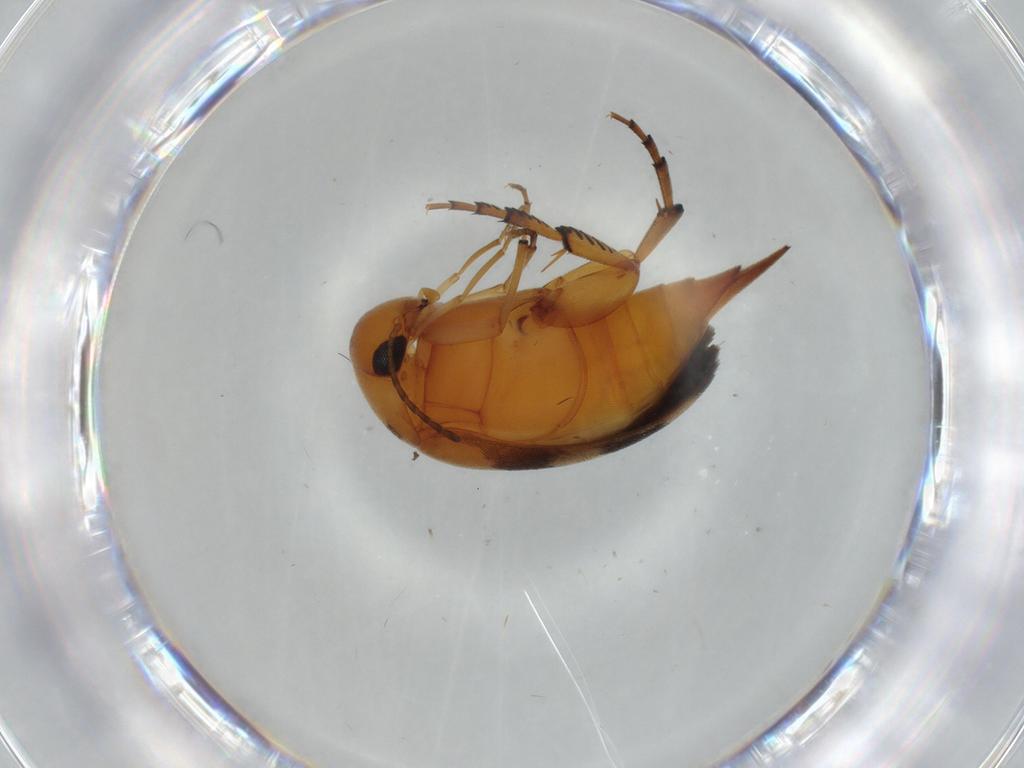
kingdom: Animalia
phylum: Arthropoda
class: Insecta
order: Coleoptera
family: Mordellidae
